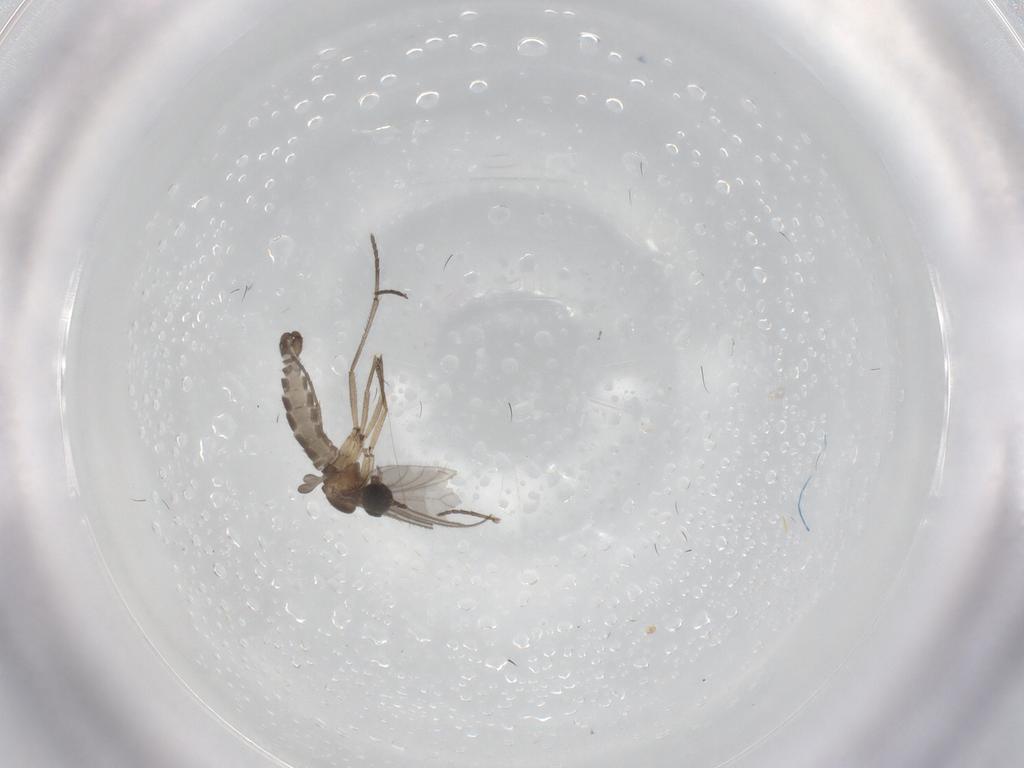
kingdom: Animalia
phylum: Arthropoda
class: Insecta
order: Diptera
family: Sciaridae
